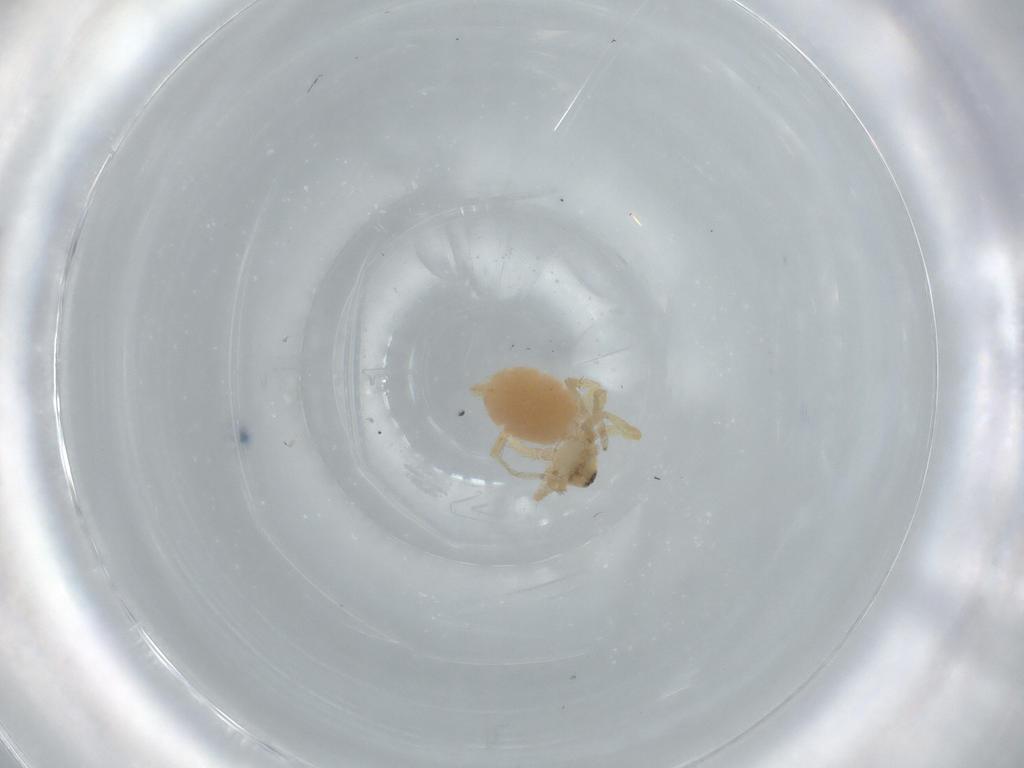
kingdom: Animalia
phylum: Arthropoda
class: Arachnida
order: Araneae
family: Oonopidae
